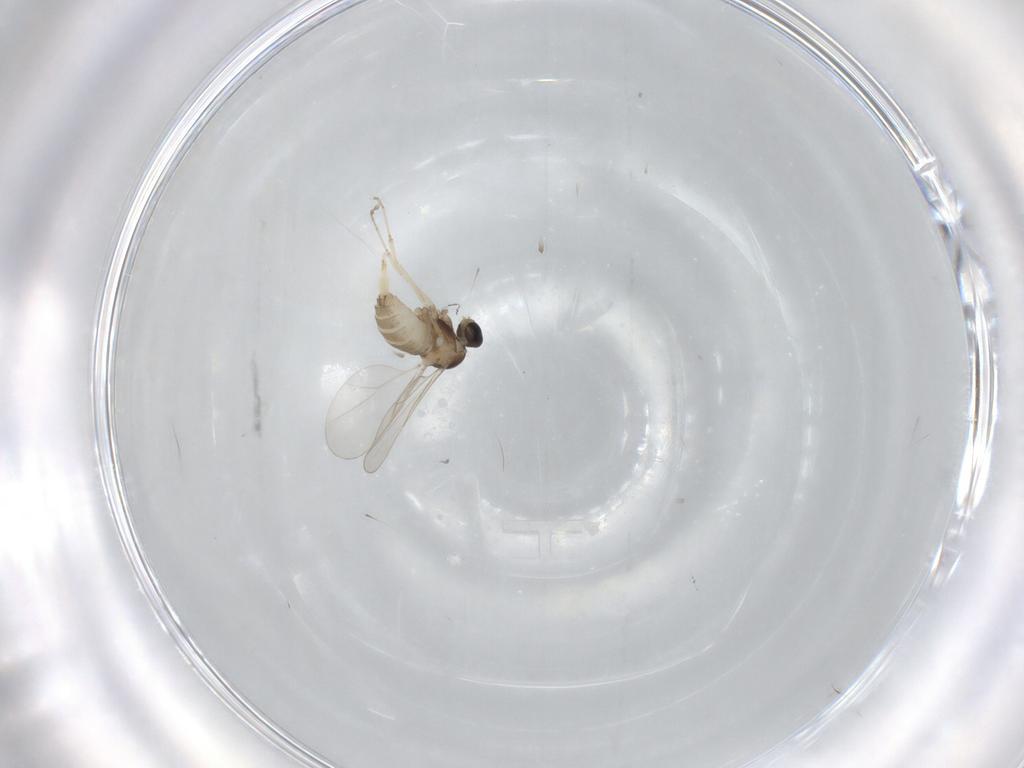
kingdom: Animalia
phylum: Arthropoda
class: Insecta
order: Diptera
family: Cecidomyiidae
